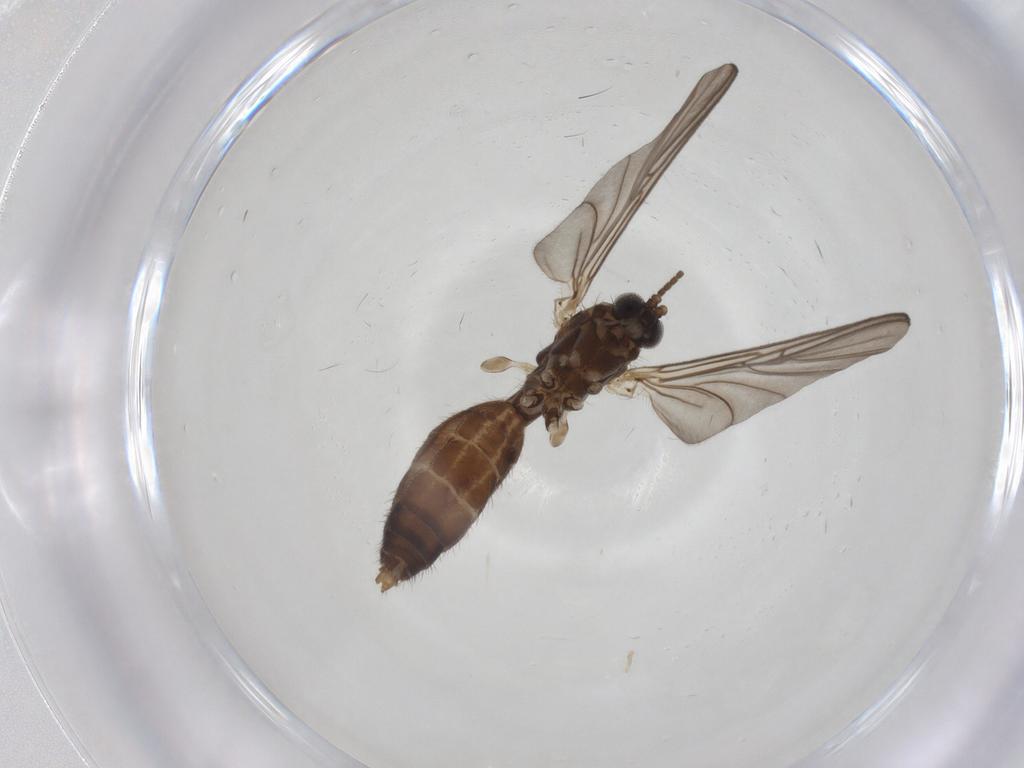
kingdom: Animalia
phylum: Arthropoda
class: Insecta
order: Diptera
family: Mycetophilidae
